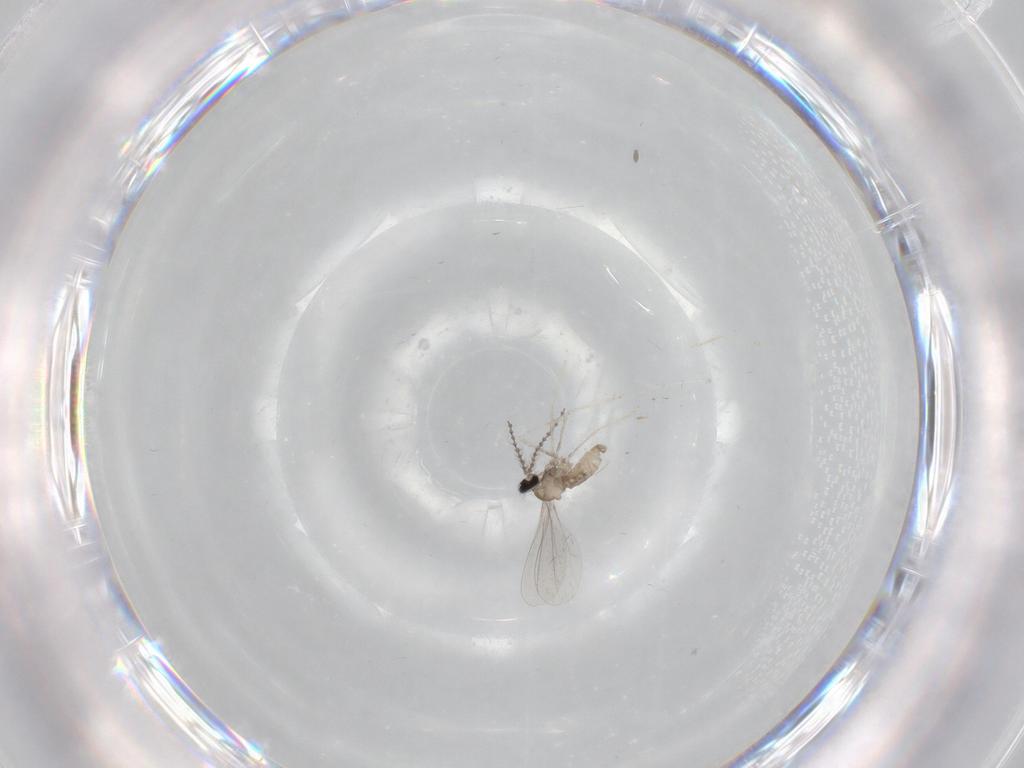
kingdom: Animalia
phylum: Arthropoda
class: Insecta
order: Diptera
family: Cecidomyiidae
